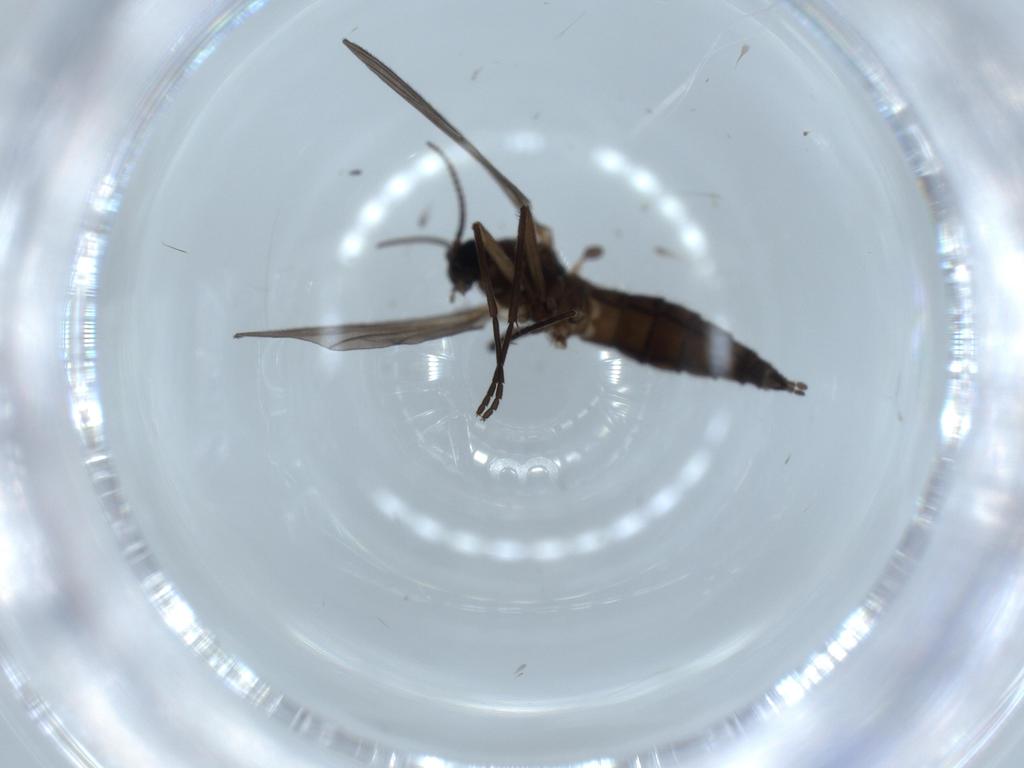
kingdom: Animalia
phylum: Arthropoda
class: Insecta
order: Diptera
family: Sciaridae
